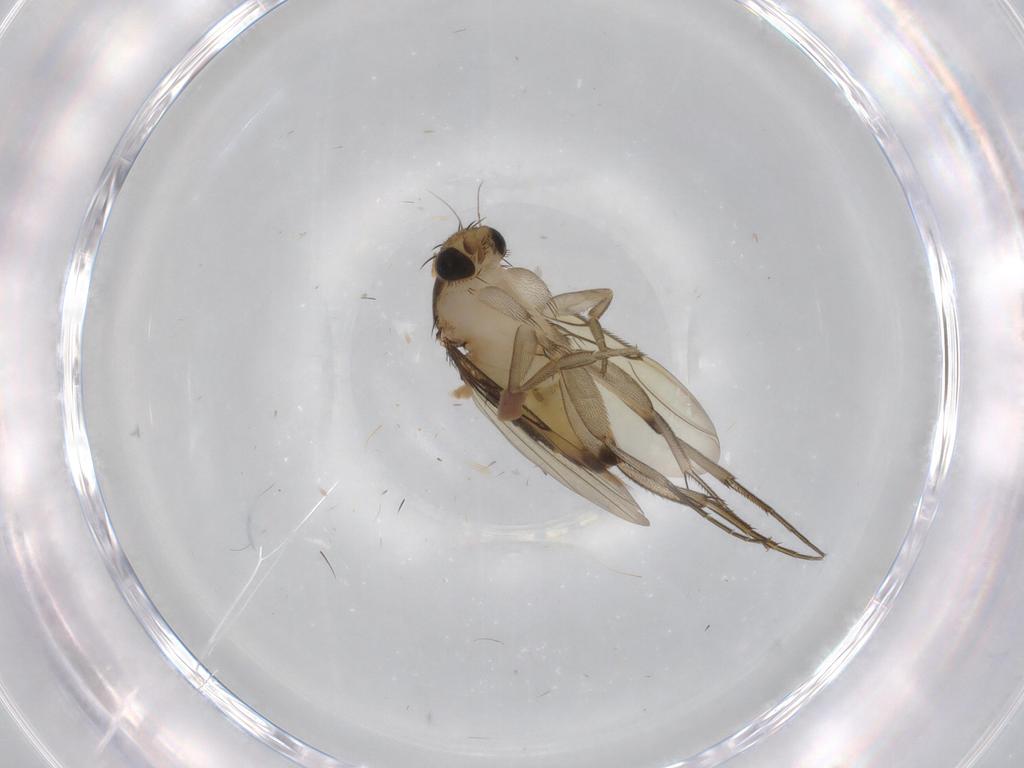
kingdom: Animalia
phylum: Arthropoda
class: Insecta
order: Diptera
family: Phoridae
